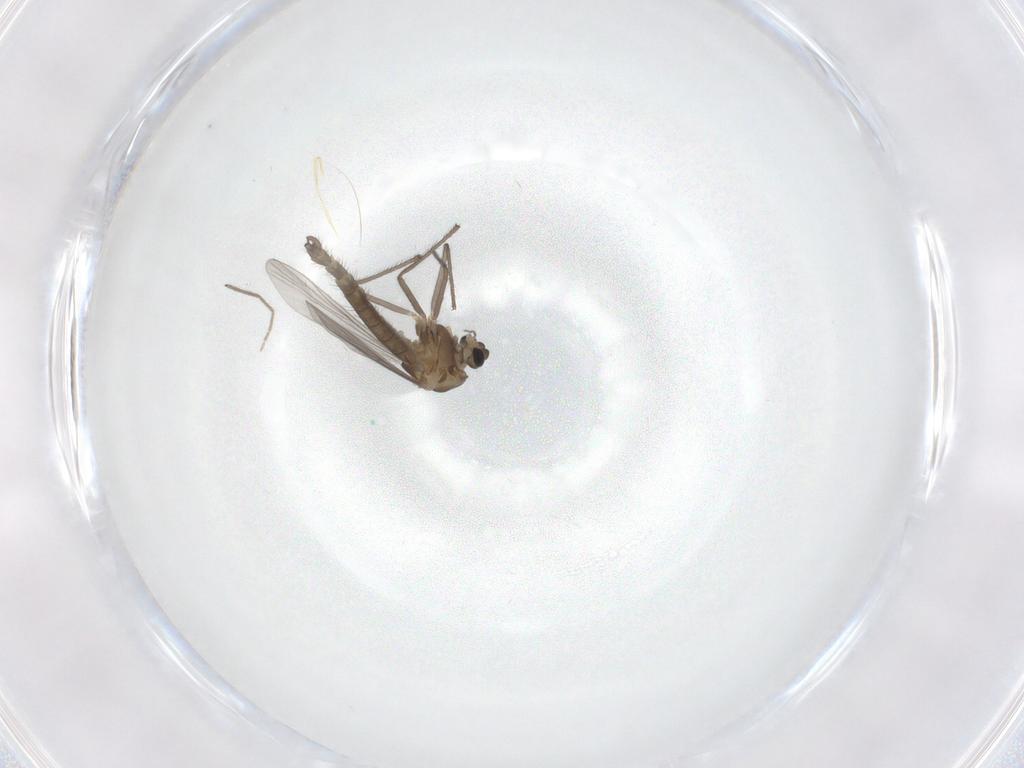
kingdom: Animalia
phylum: Arthropoda
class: Insecta
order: Diptera
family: Chironomidae
